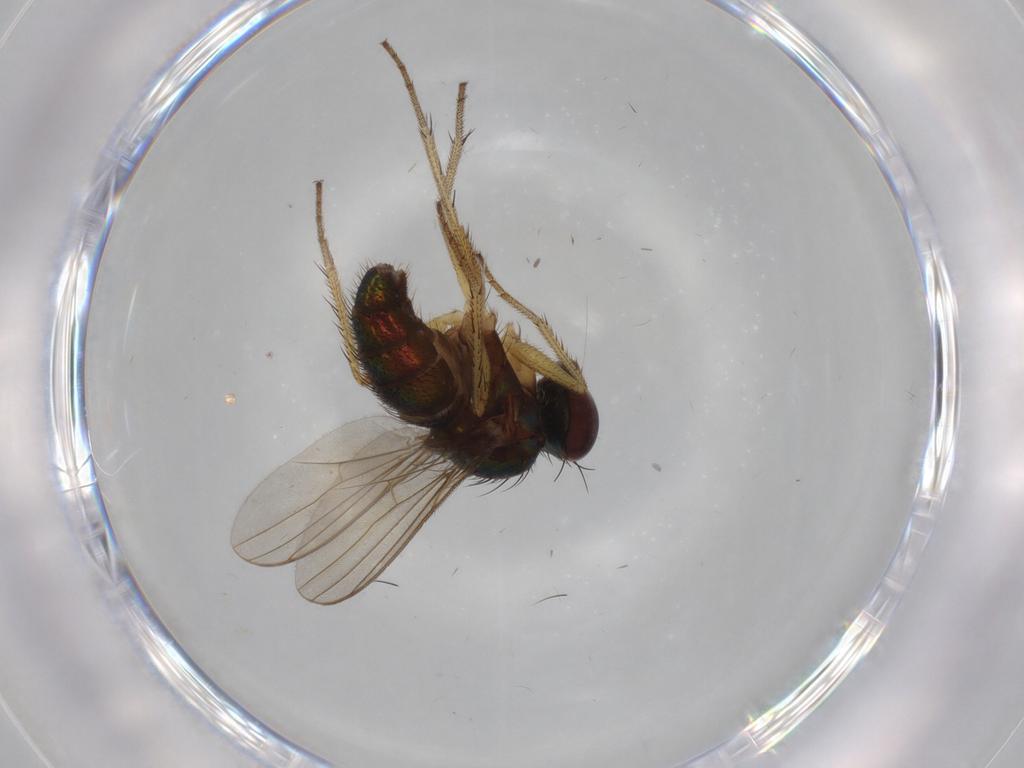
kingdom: Animalia
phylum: Arthropoda
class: Insecta
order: Diptera
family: Dolichopodidae
